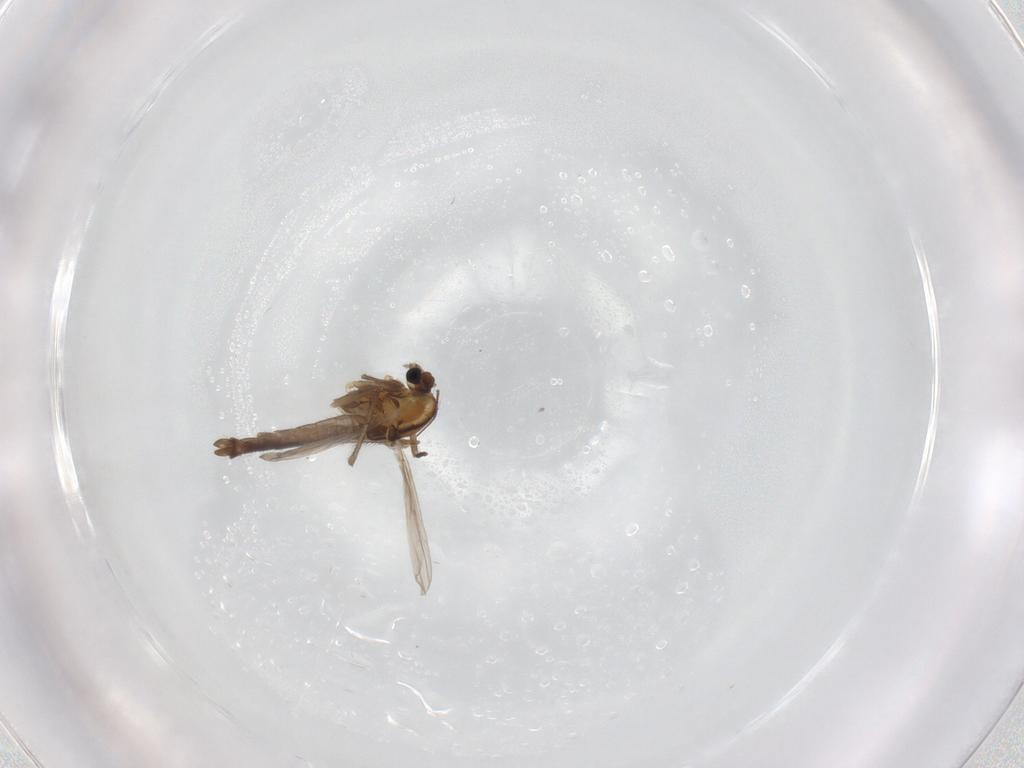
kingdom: Animalia
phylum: Arthropoda
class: Insecta
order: Diptera
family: Chironomidae
